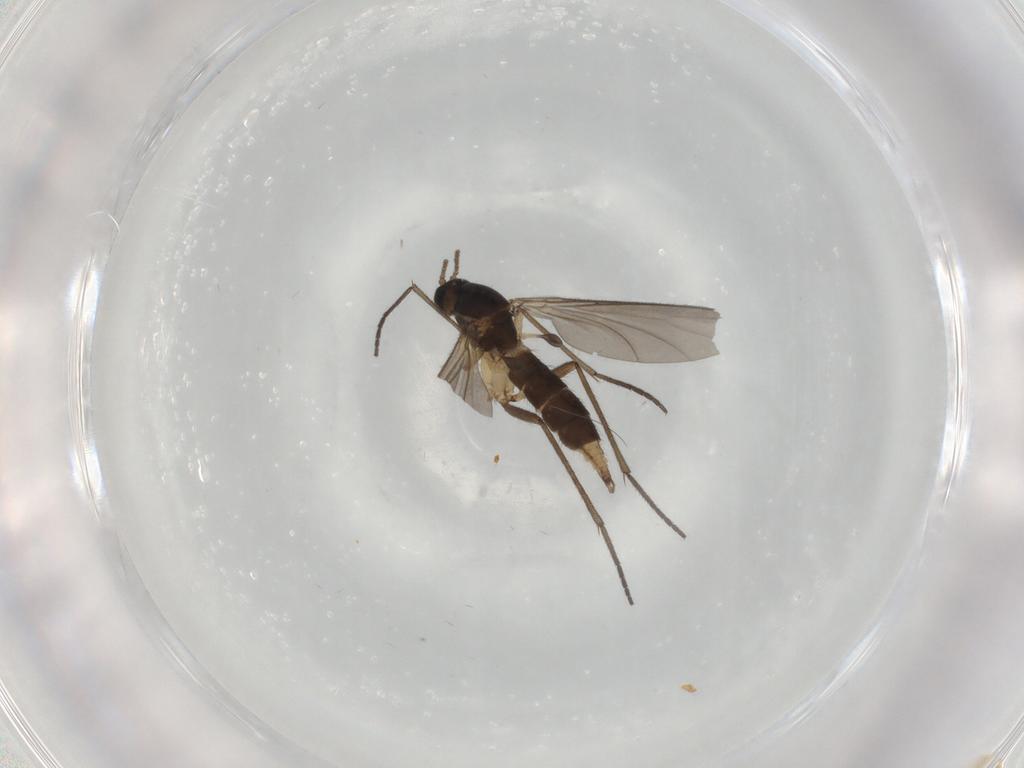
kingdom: Animalia
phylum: Arthropoda
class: Insecta
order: Diptera
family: Sciaridae
